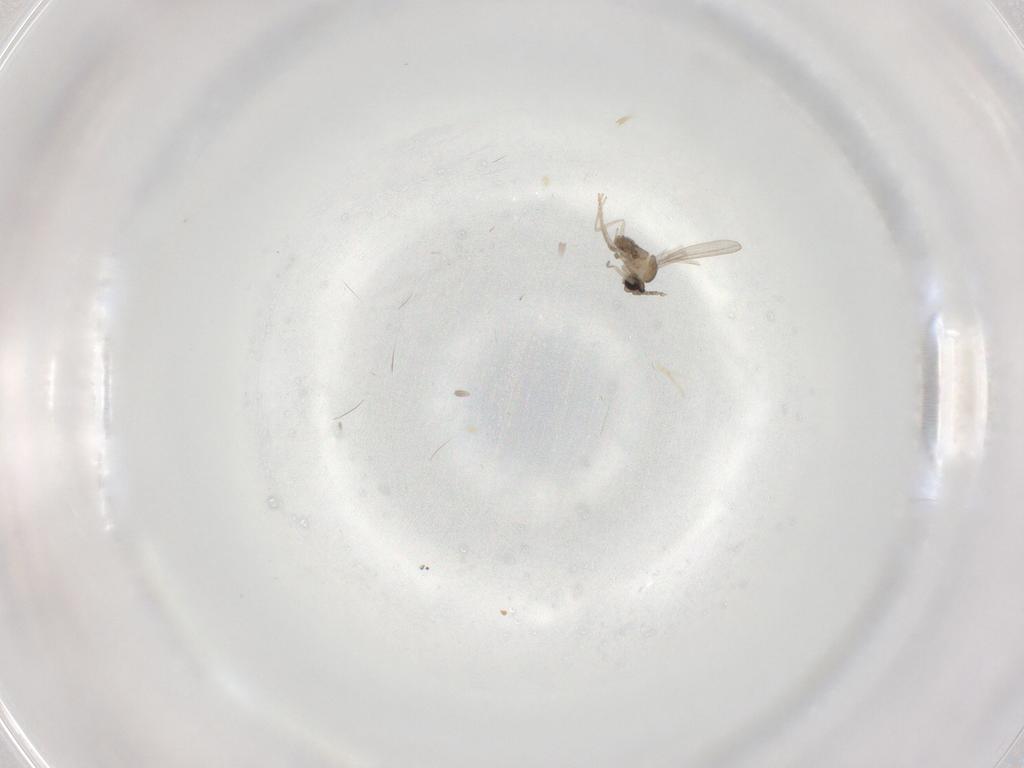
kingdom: Animalia
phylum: Arthropoda
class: Insecta
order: Diptera
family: Cecidomyiidae
